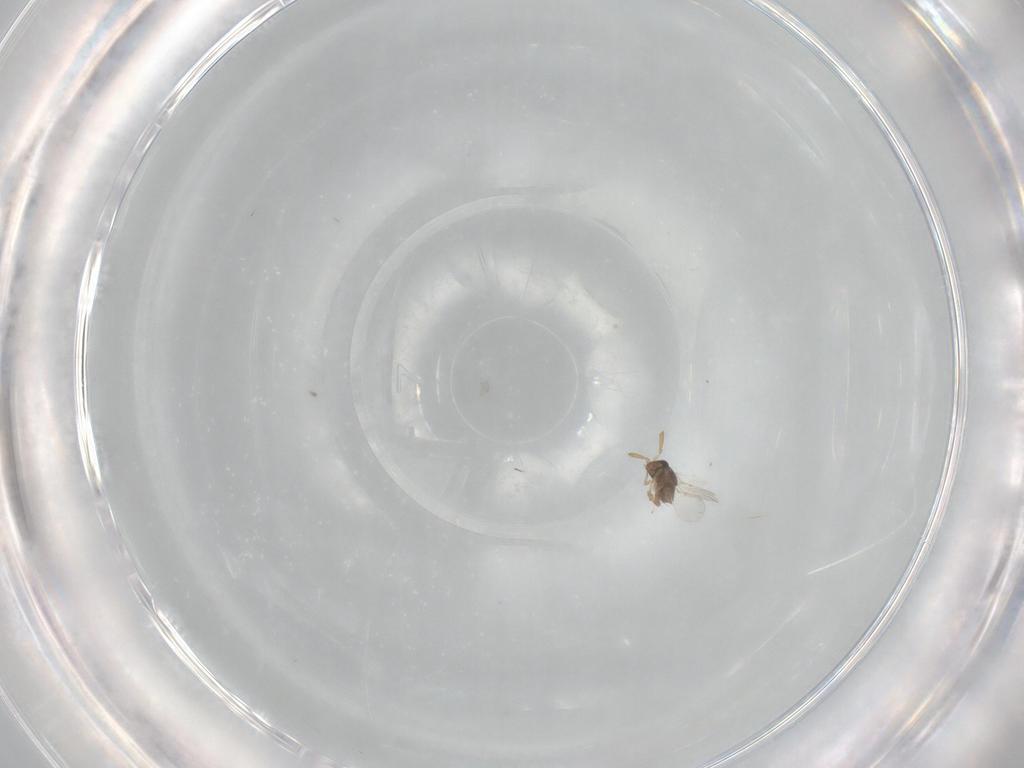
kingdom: Animalia
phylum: Arthropoda
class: Insecta
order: Hymenoptera
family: Encyrtidae
